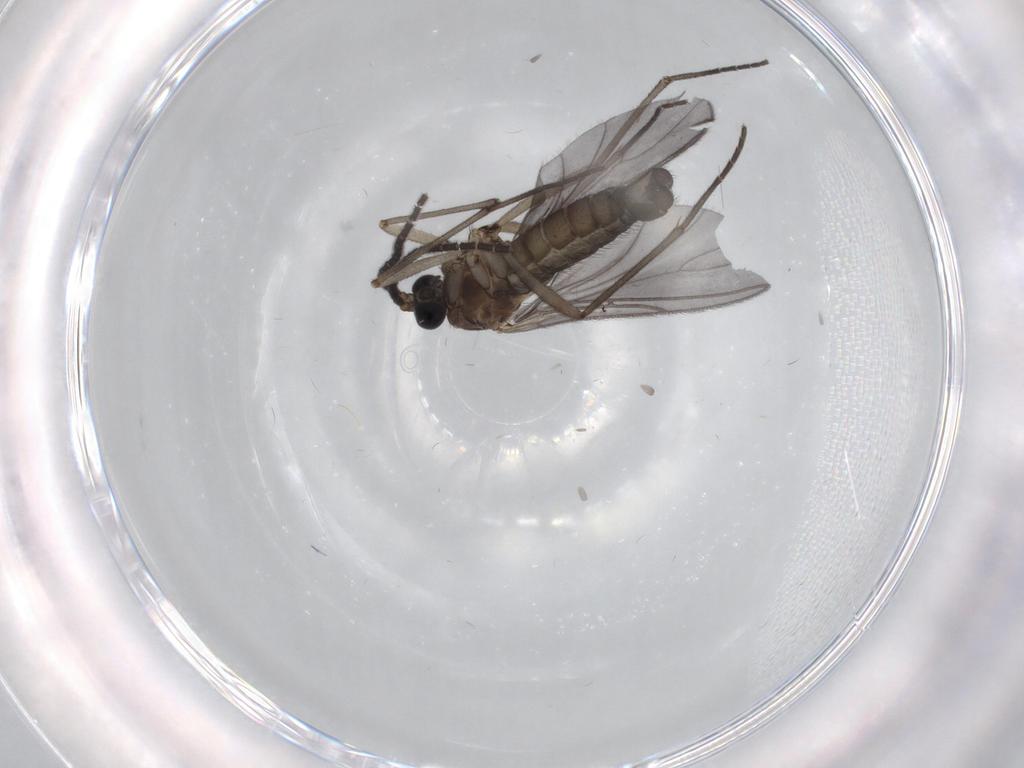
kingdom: Animalia
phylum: Arthropoda
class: Insecta
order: Diptera
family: Sciaridae
